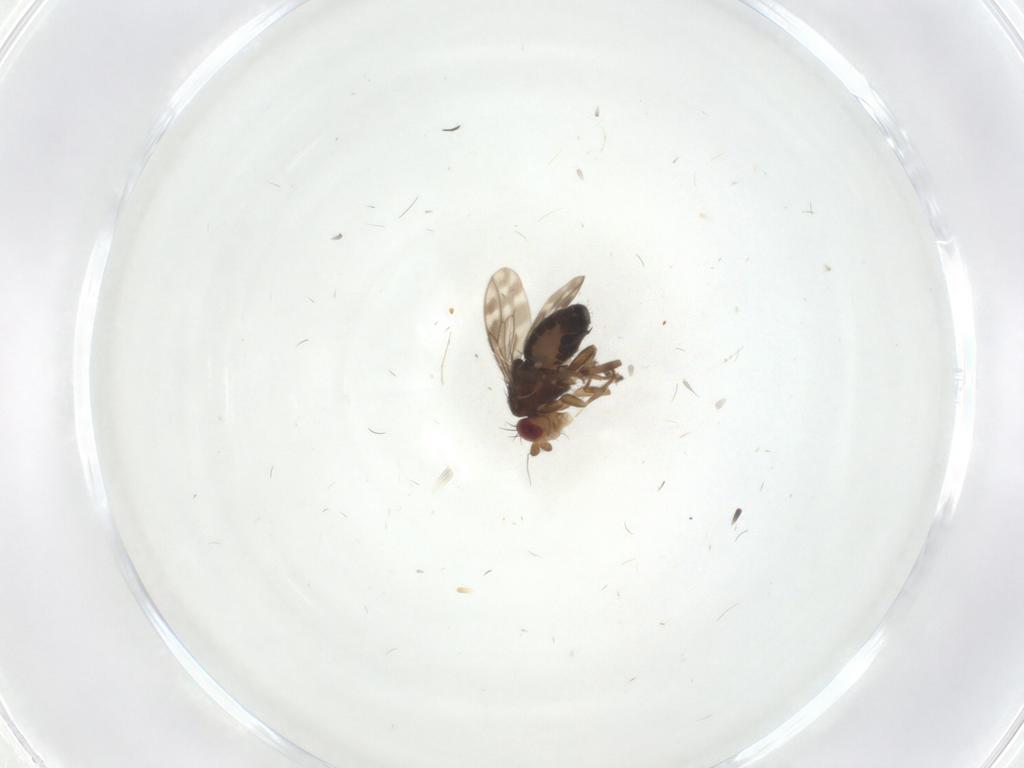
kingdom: Animalia
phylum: Arthropoda
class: Insecta
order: Diptera
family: Sphaeroceridae
